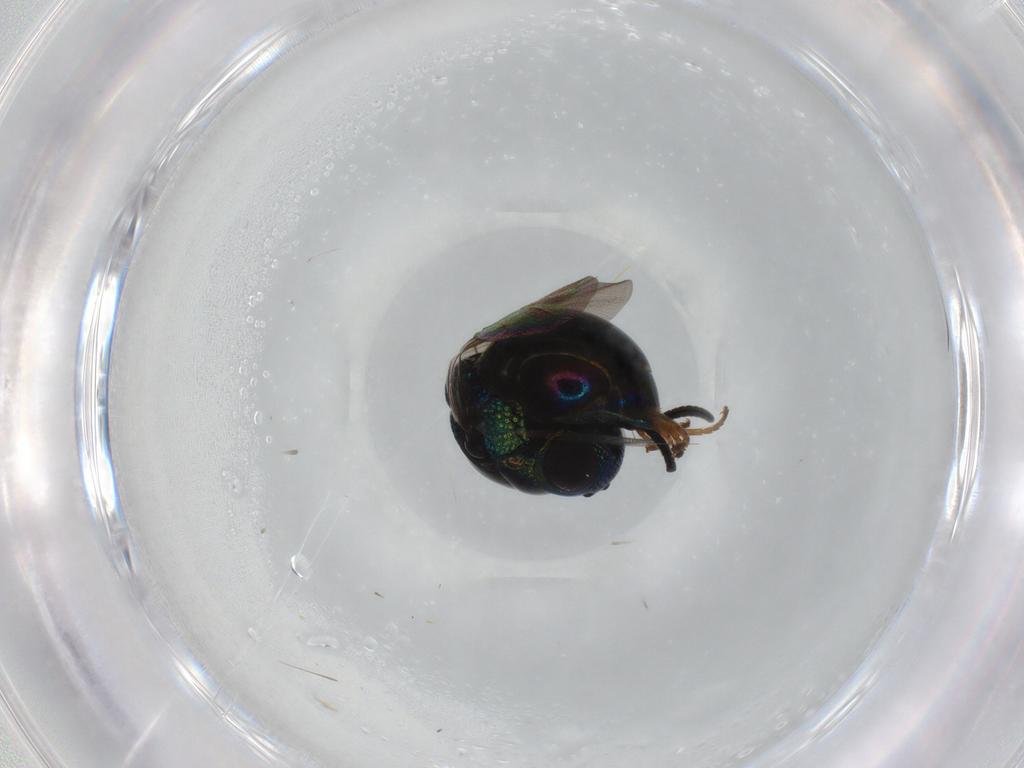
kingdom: Animalia
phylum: Arthropoda
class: Insecta
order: Hymenoptera
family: Chrysididae
